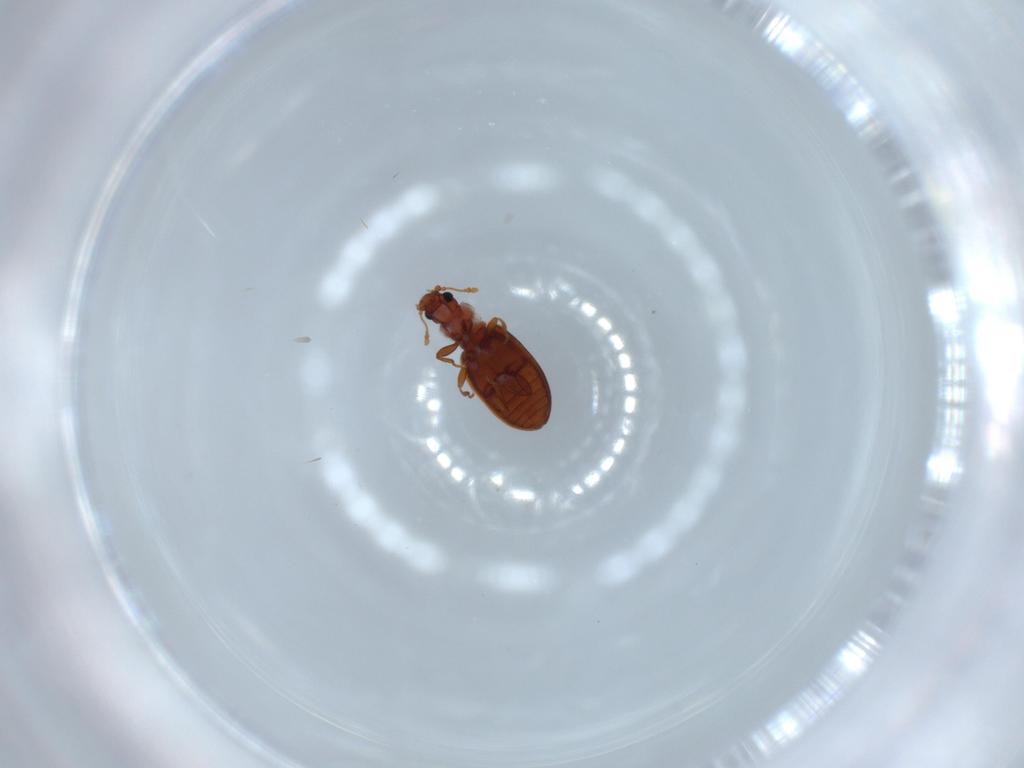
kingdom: Animalia
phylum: Arthropoda
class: Insecta
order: Coleoptera
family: Latridiidae
